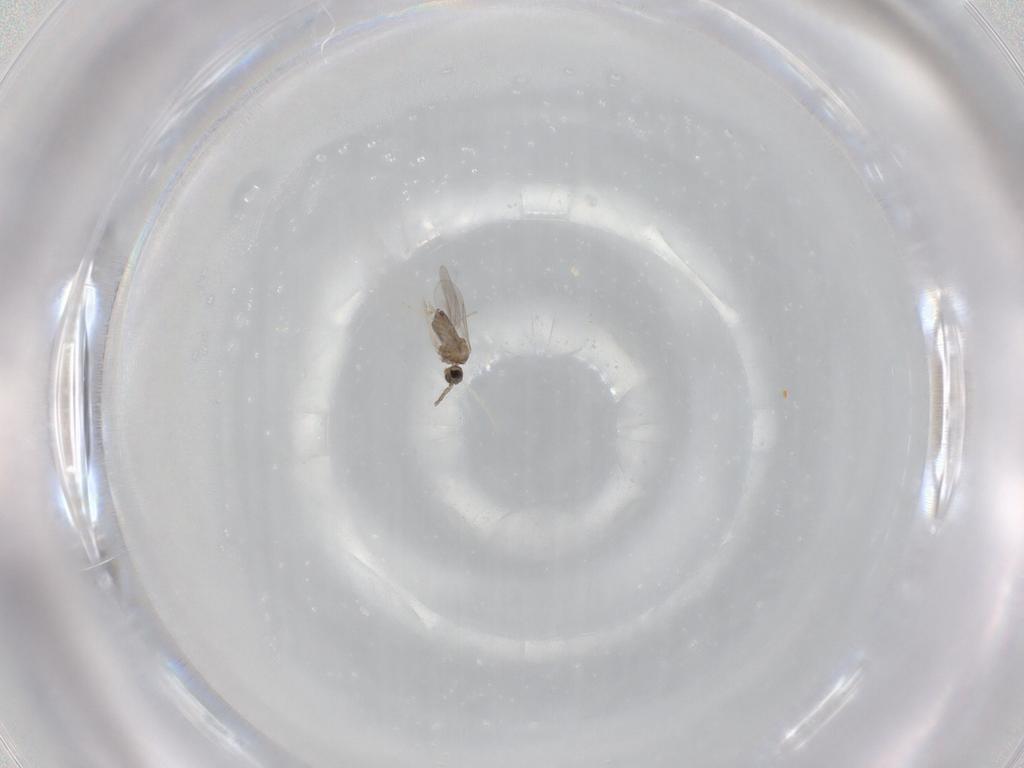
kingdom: Animalia
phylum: Arthropoda
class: Insecta
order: Diptera
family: Cecidomyiidae
